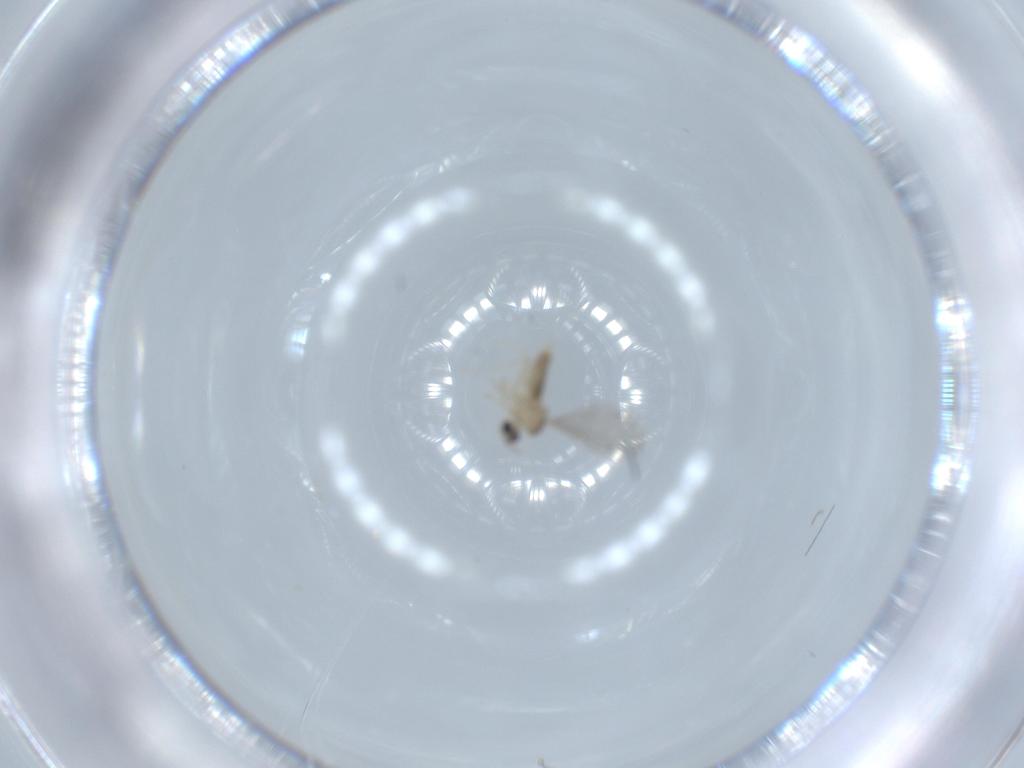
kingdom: Animalia
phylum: Arthropoda
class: Insecta
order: Diptera
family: Cecidomyiidae
